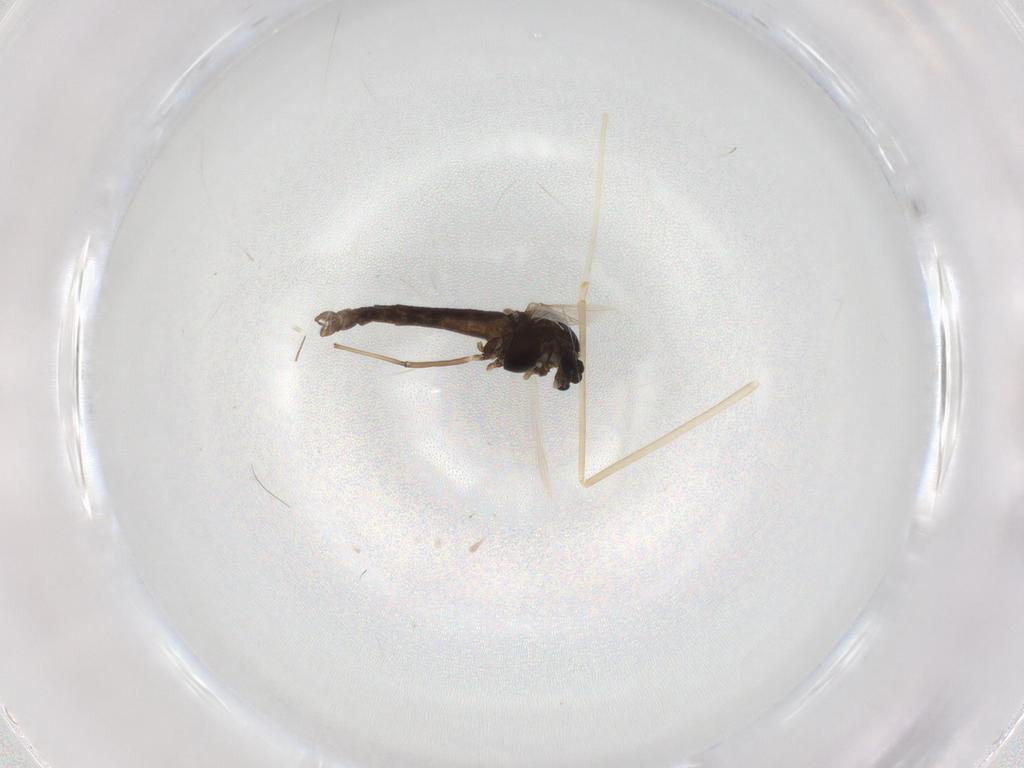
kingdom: Animalia
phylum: Arthropoda
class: Insecta
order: Diptera
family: Chironomidae
